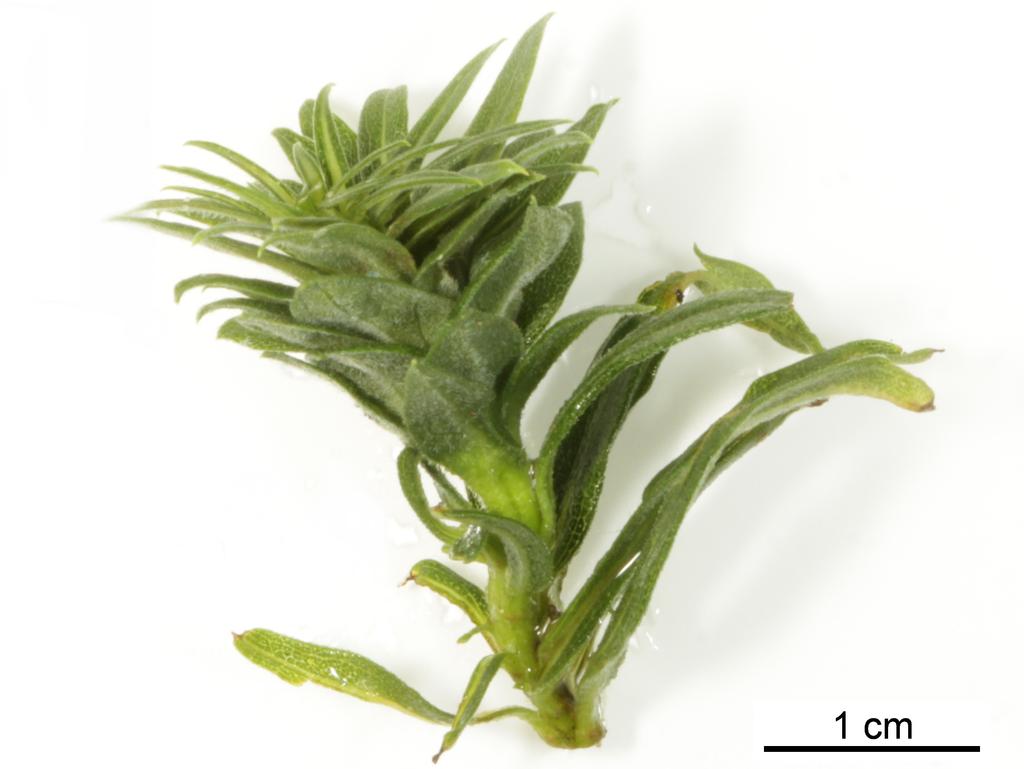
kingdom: Animalia
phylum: Arthropoda
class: Insecta
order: Hymenoptera
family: Torymidae
